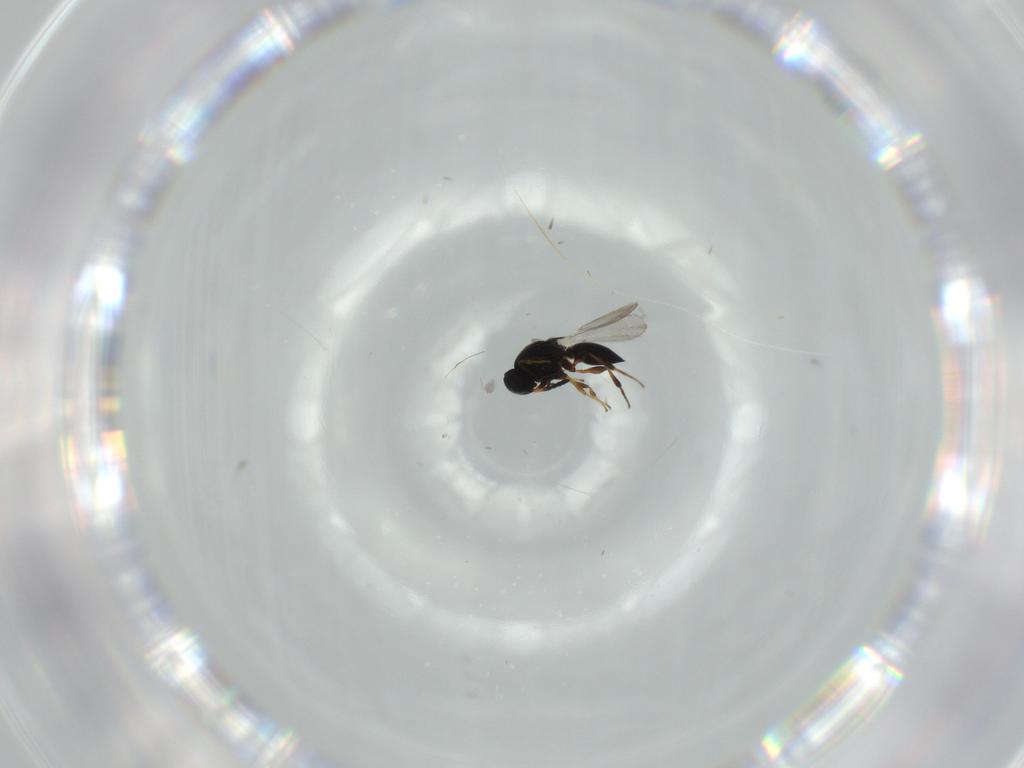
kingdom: Animalia
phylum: Arthropoda
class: Insecta
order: Hymenoptera
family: Platygastridae
